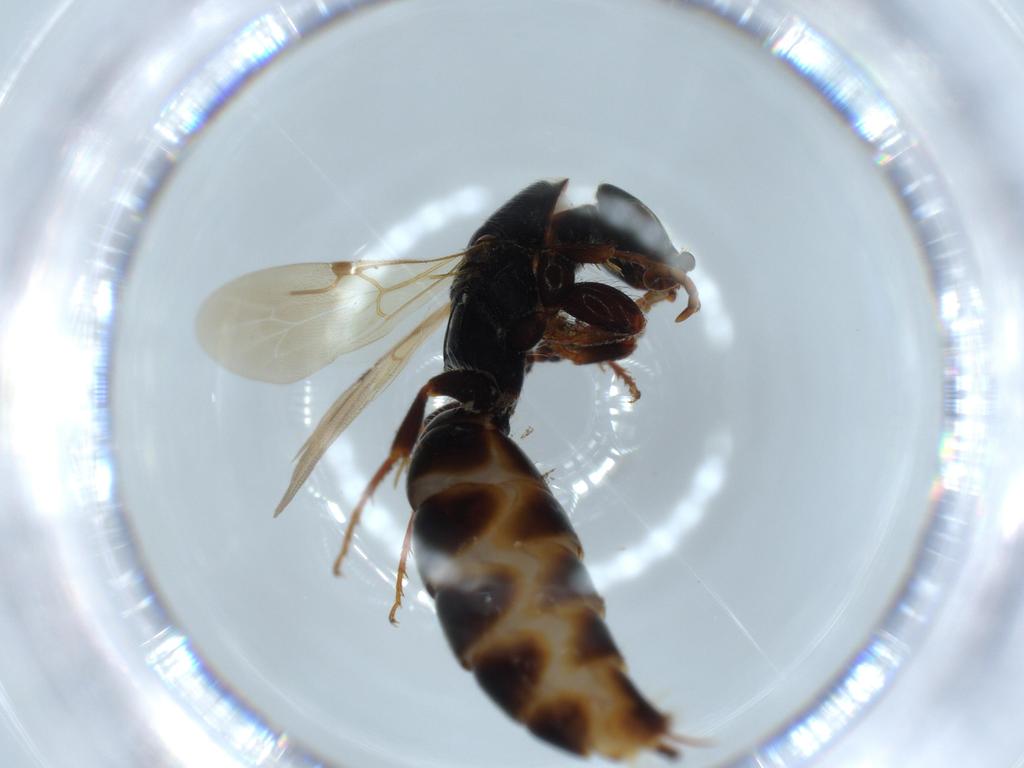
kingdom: Animalia
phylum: Arthropoda
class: Insecta
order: Hymenoptera
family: Bethylidae
